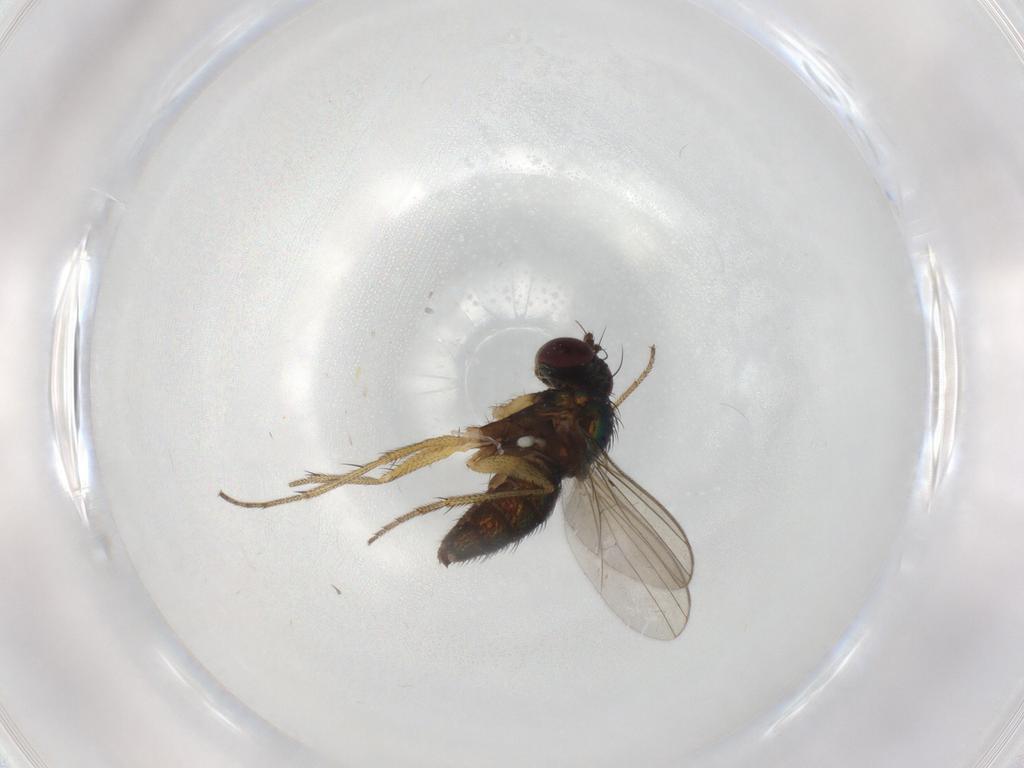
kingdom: Animalia
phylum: Arthropoda
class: Insecta
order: Diptera
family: Dolichopodidae
